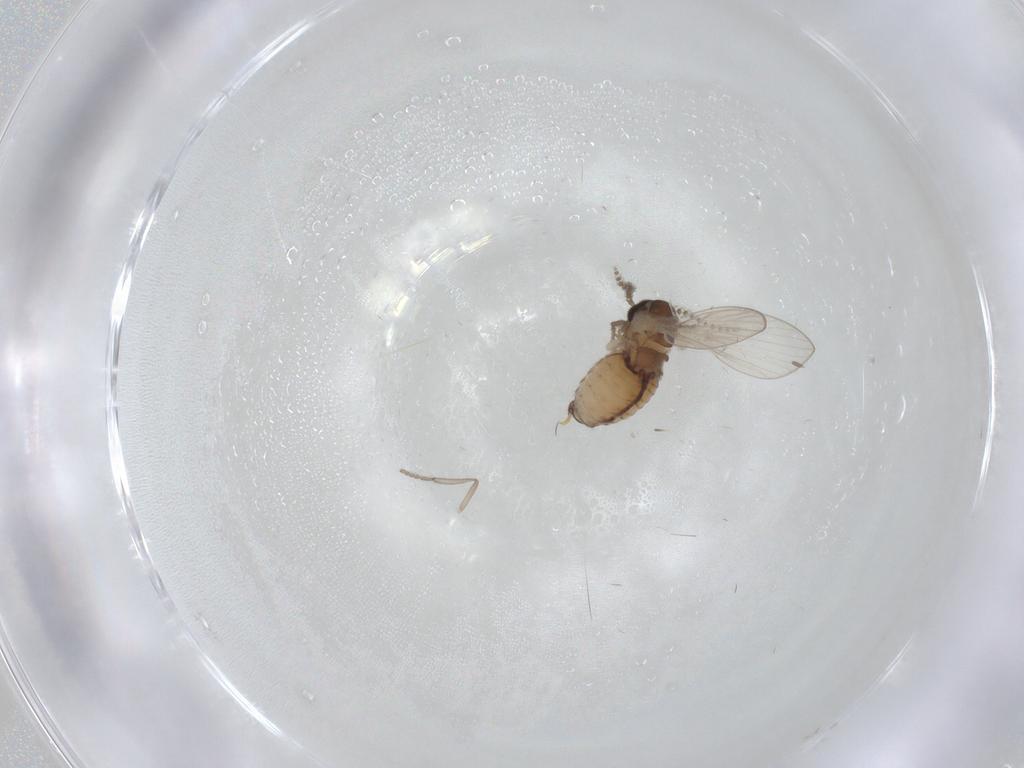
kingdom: Animalia
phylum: Arthropoda
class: Insecta
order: Diptera
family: Psychodidae
